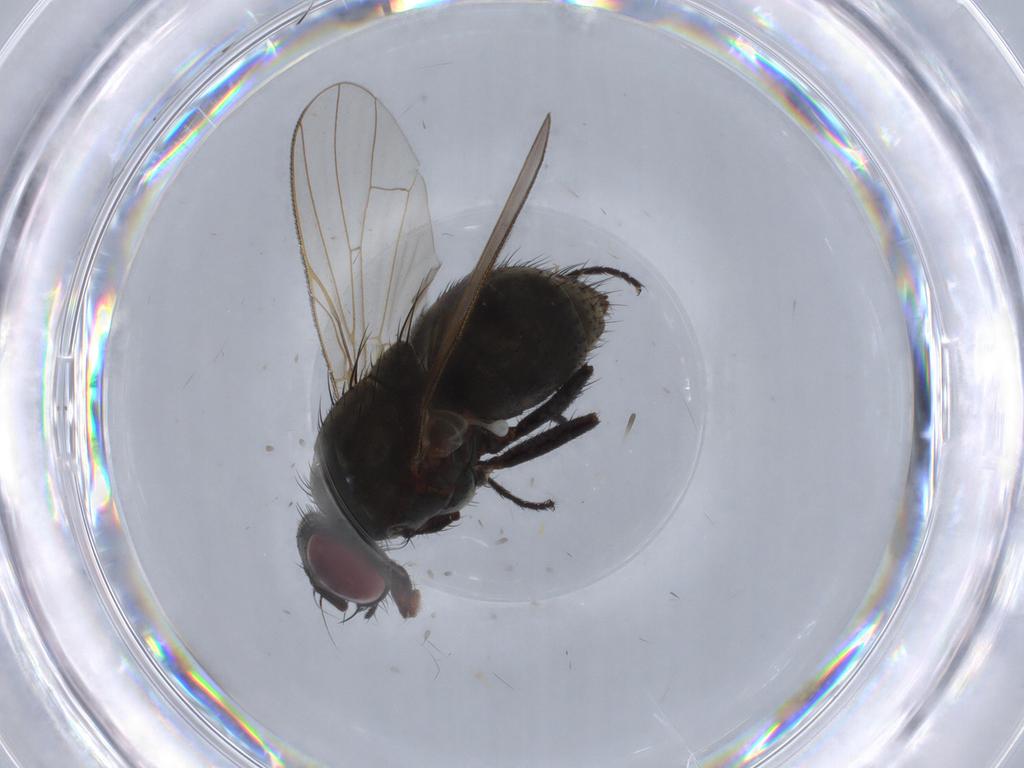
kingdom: Animalia
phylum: Arthropoda
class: Insecta
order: Diptera
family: Muscidae
